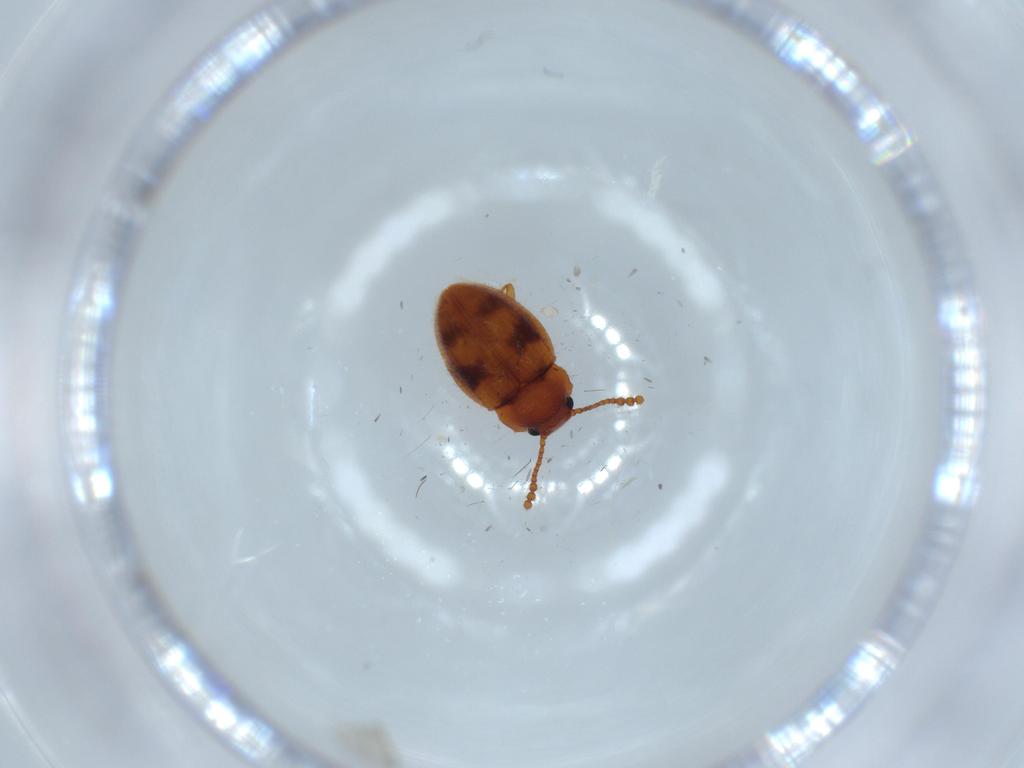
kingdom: Animalia
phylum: Arthropoda
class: Insecta
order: Coleoptera
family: Erotylidae
